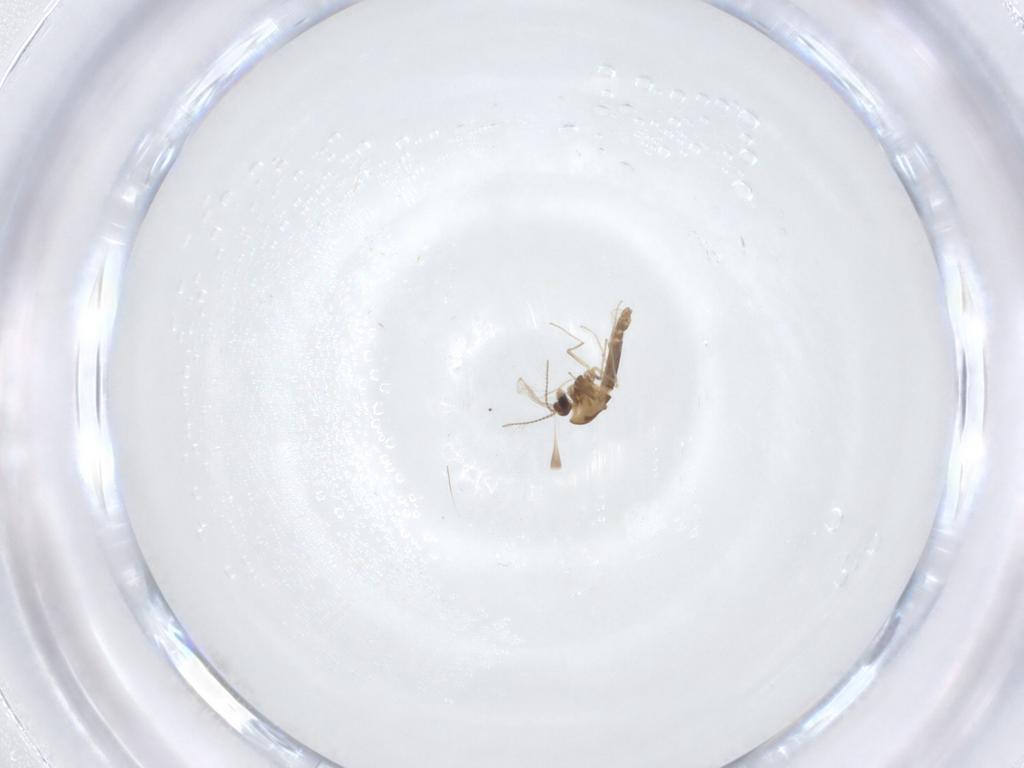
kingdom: Animalia
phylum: Arthropoda
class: Insecta
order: Diptera
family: Chironomidae
